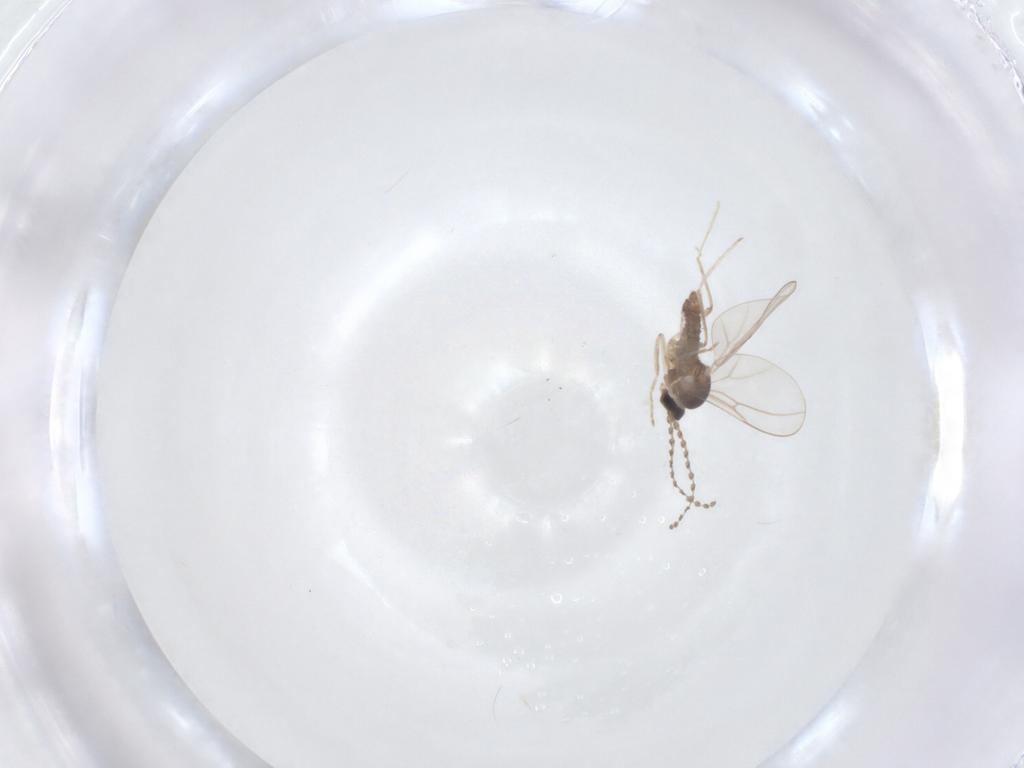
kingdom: Animalia
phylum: Arthropoda
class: Insecta
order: Diptera
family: Cecidomyiidae
